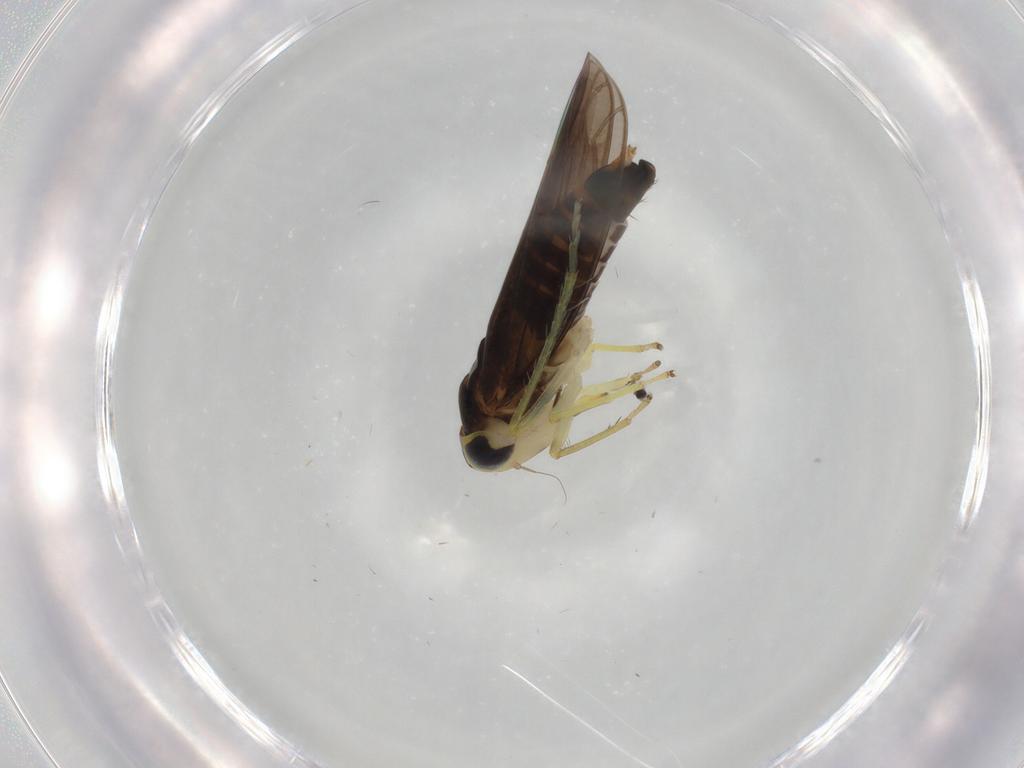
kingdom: Animalia
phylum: Arthropoda
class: Insecta
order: Hemiptera
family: Cicadellidae
